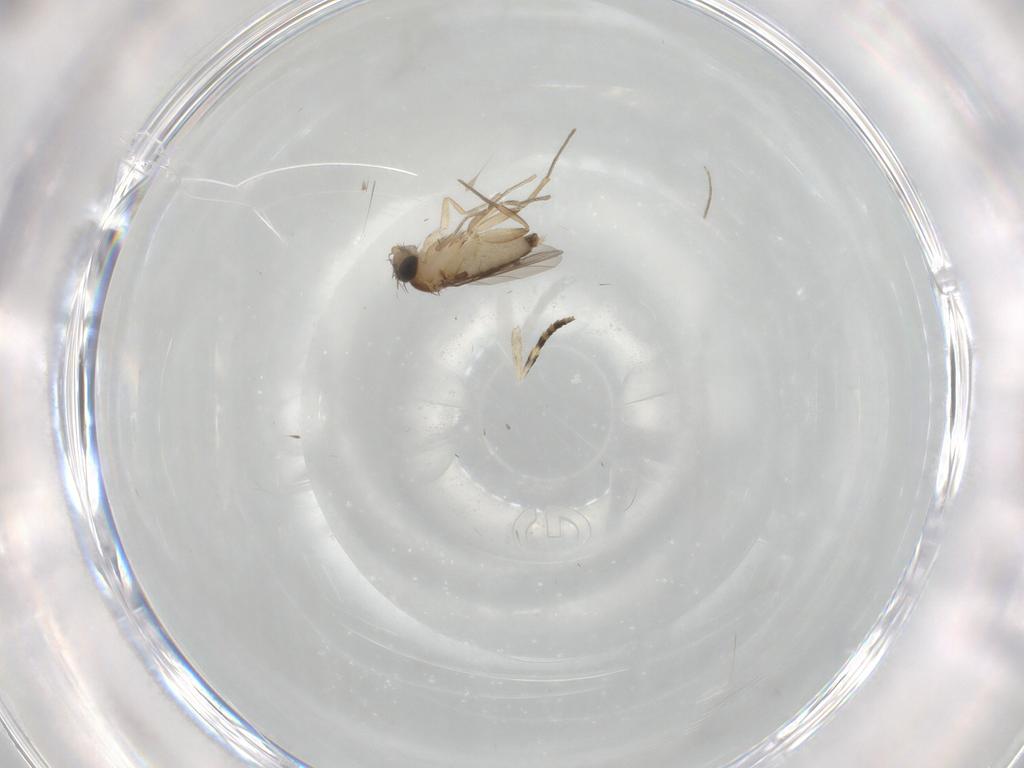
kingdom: Animalia
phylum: Arthropoda
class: Insecta
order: Diptera
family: Phoridae
